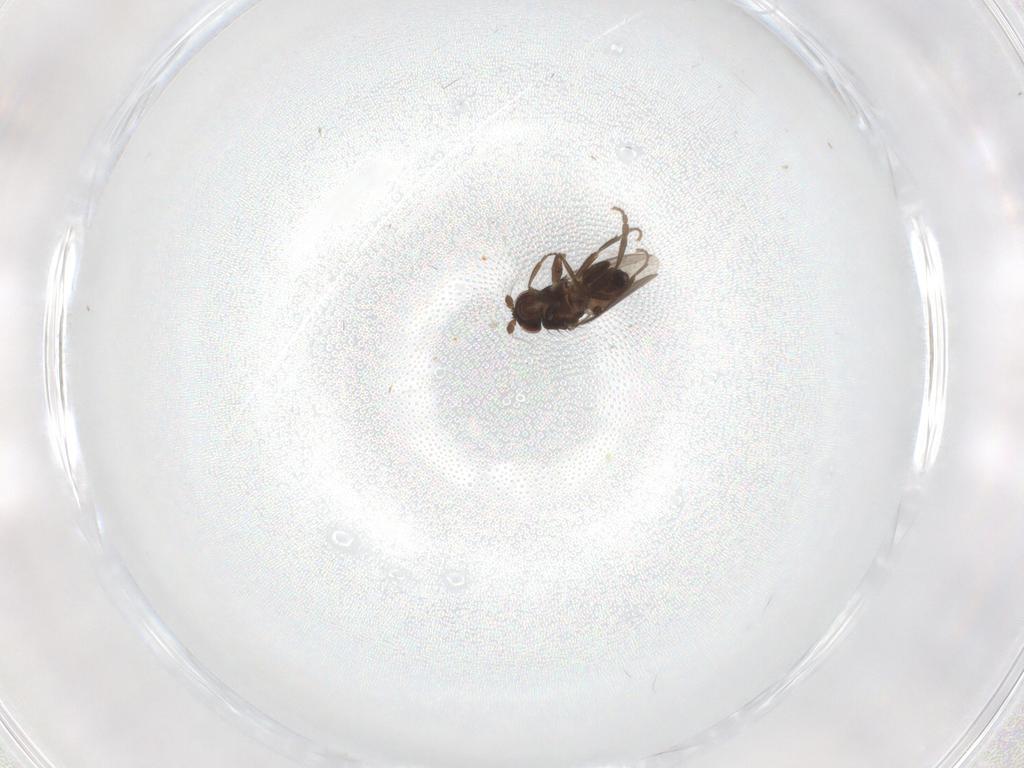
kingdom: Animalia
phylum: Arthropoda
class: Insecta
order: Diptera
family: Sphaeroceridae
